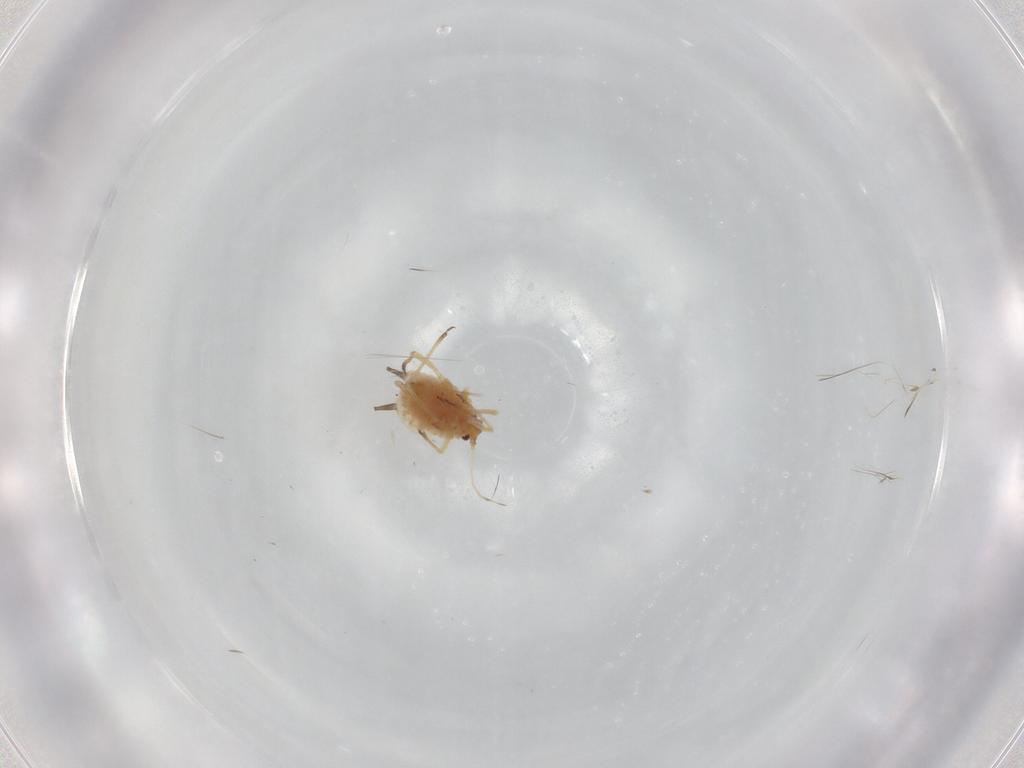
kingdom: Animalia
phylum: Arthropoda
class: Insecta
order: Hemiptera
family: Aphididae
